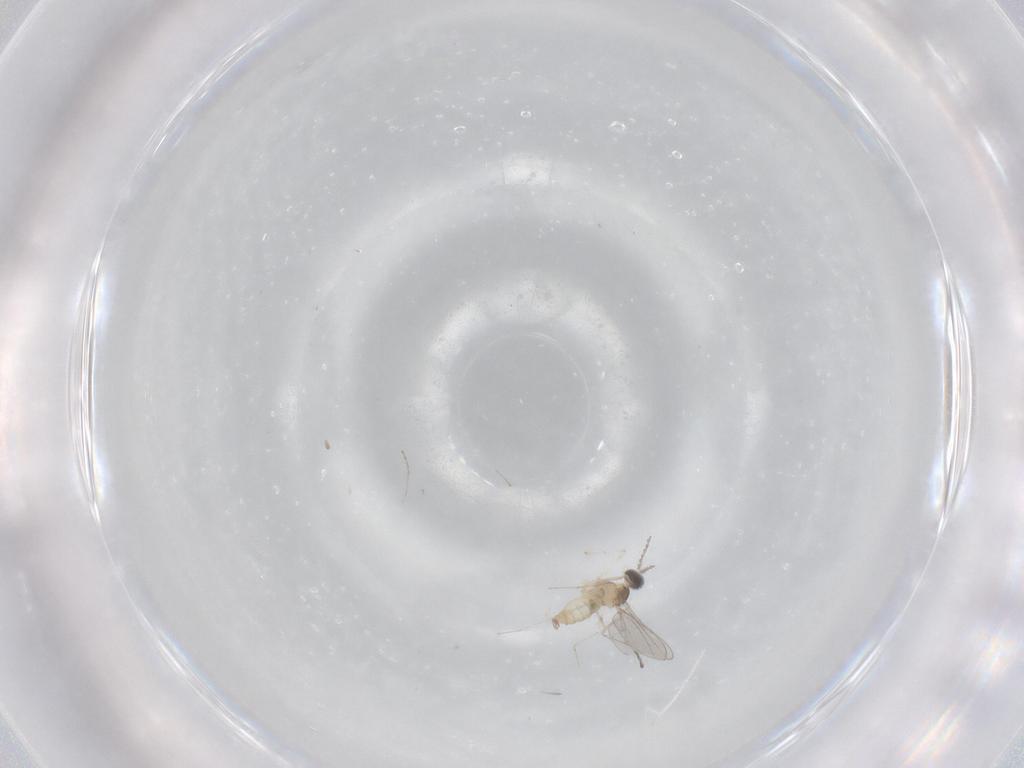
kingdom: Animalia
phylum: Arthropoda
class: Insecta
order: Diptera
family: Cecidomyiidae
